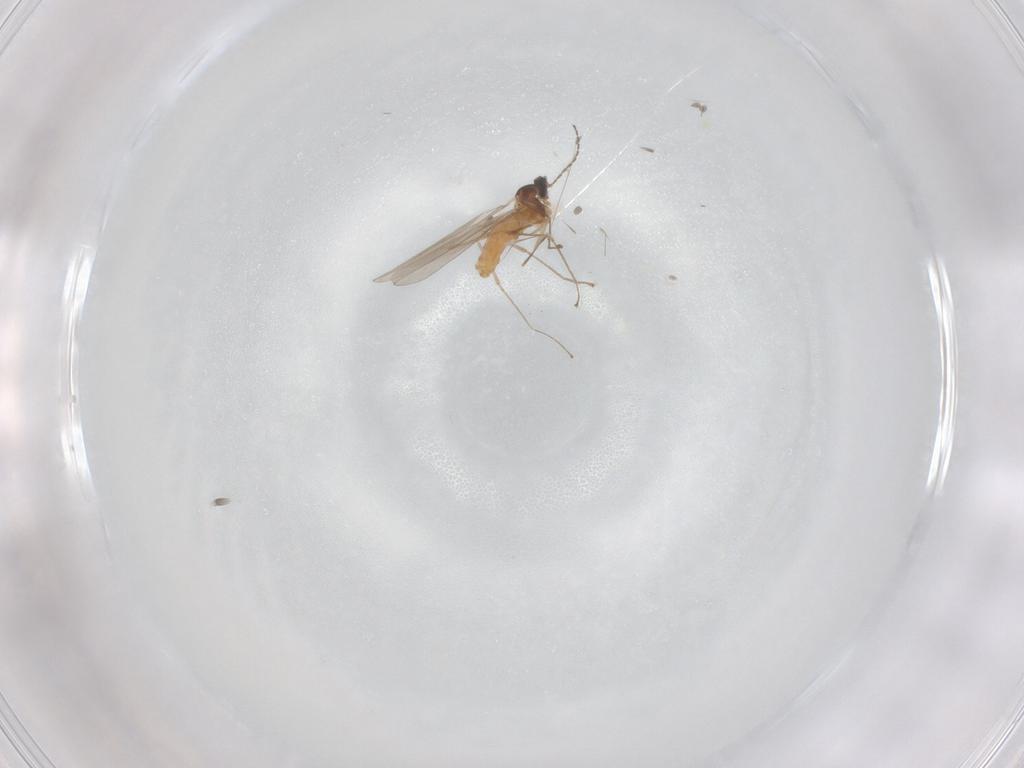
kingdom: Animalia
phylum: Arthropoda
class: Insecta
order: Diptera
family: Cecidomyiidae
